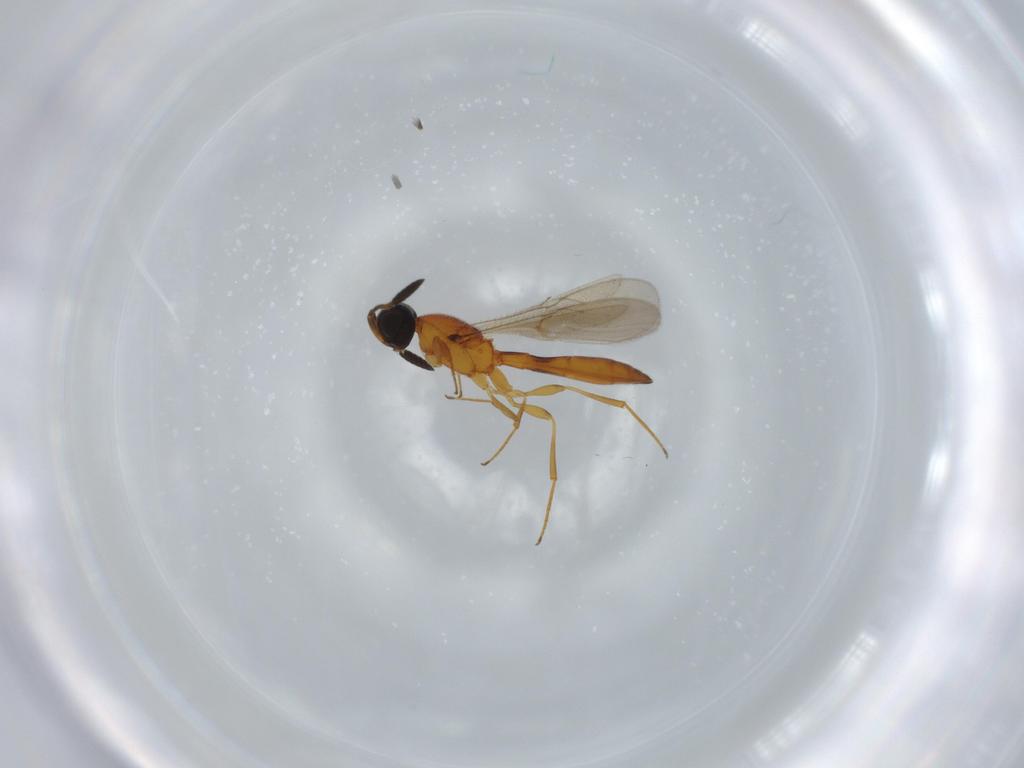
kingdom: Animalia
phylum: Arthropoda
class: Insecta
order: Hymenoptera
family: Scelionidae
